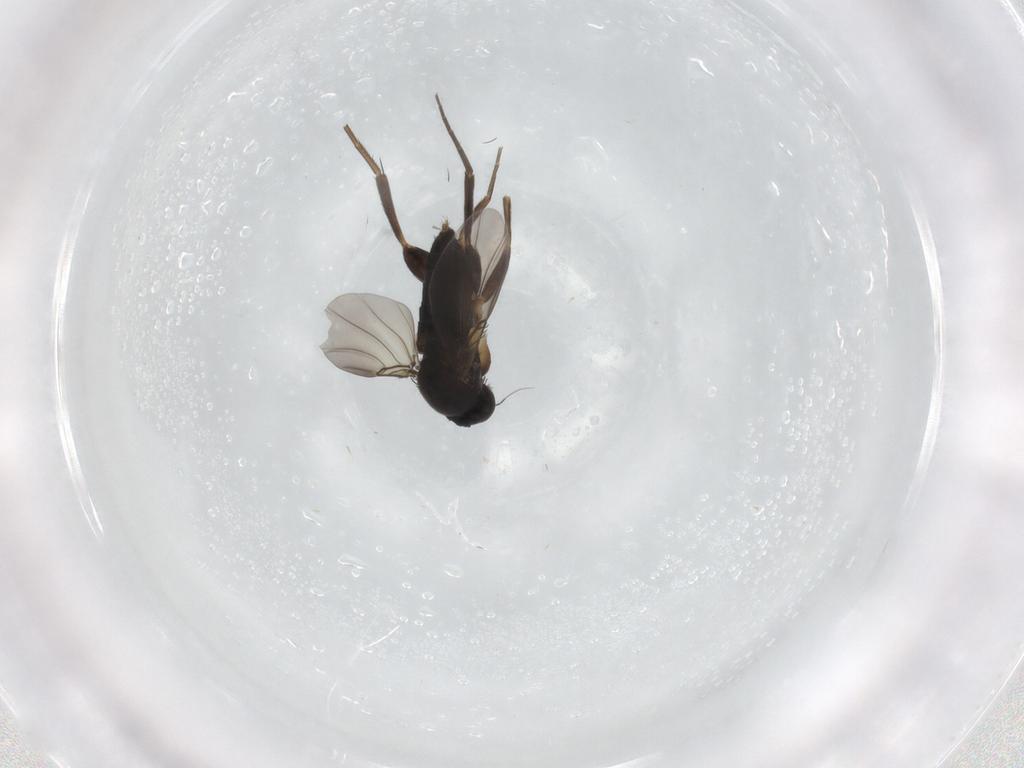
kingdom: Animalia
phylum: Arthropoda
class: Insecta
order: Diptera
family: Phoridae
